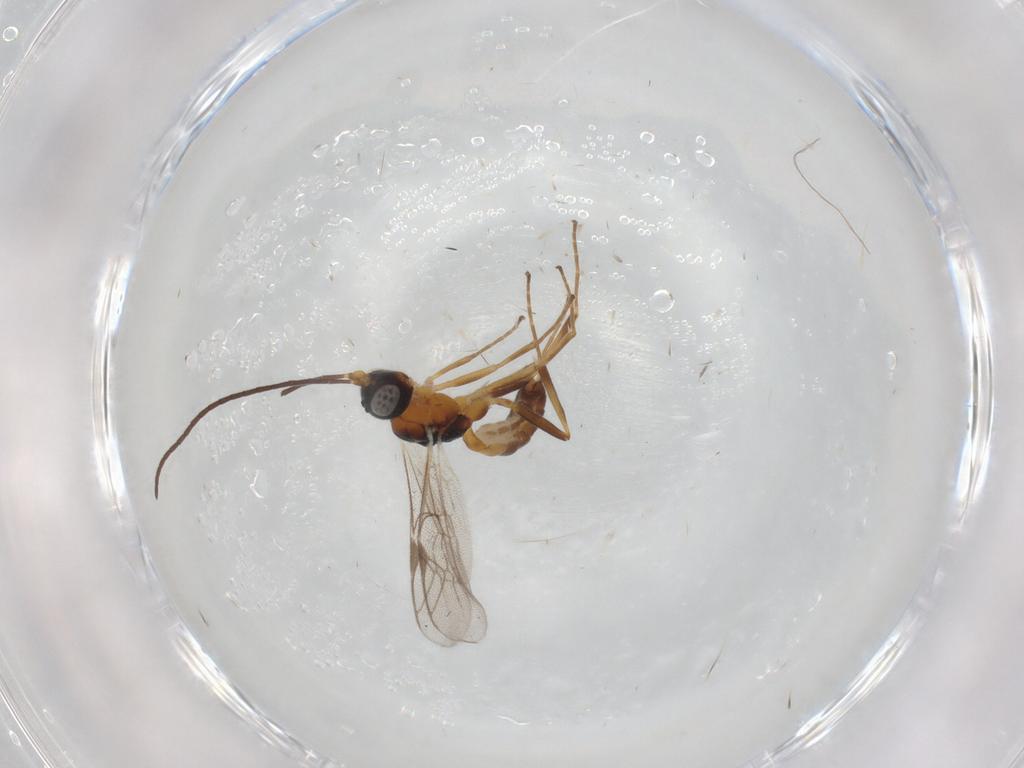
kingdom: Animalia
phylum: Arthropoda
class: Insecta
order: Hymenoptera
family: Ichneumonidae
